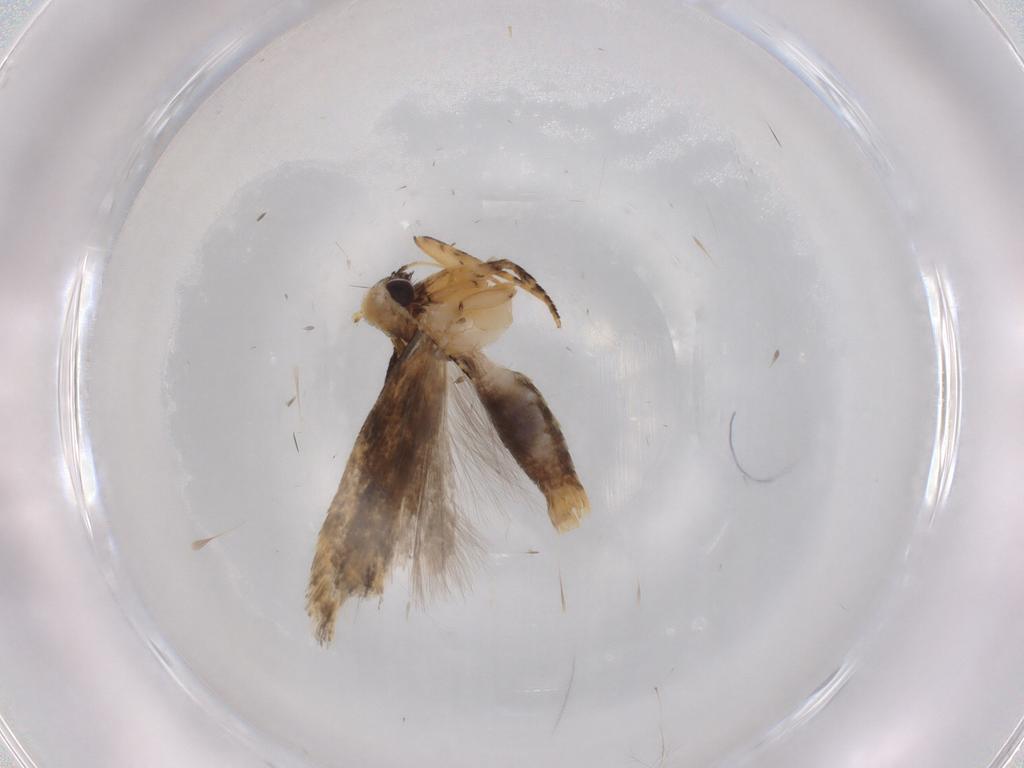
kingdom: Animalia
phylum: Arthropoda
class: Insecta
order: Lepidoptera
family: Gelechiidae
